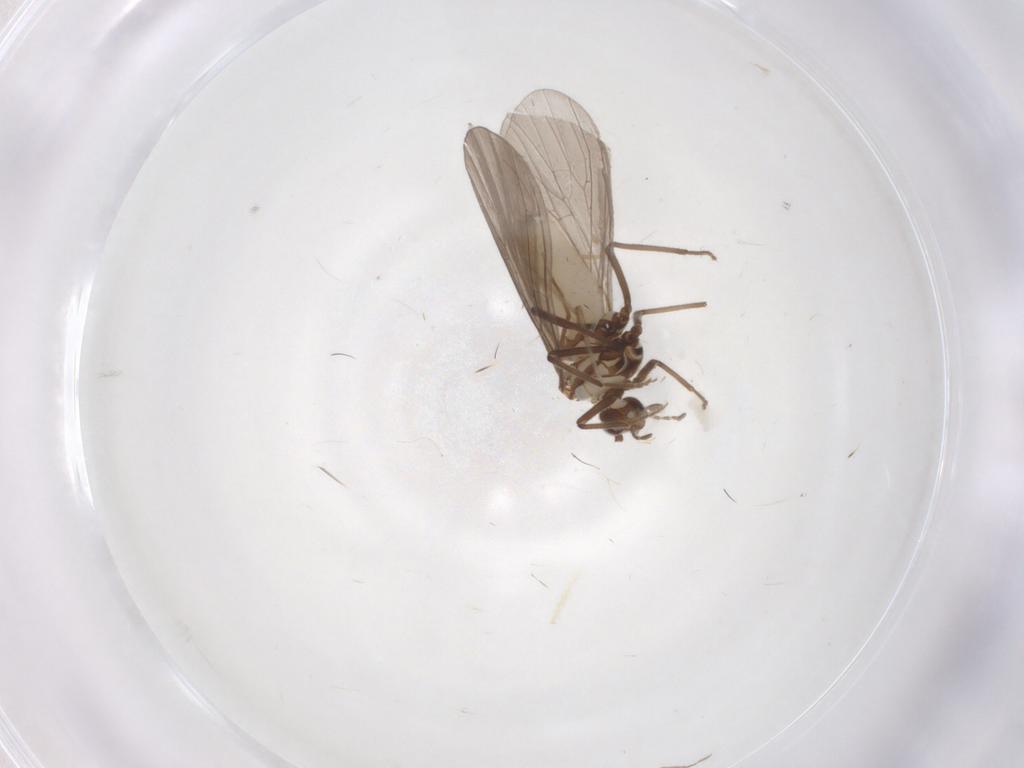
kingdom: Animalia
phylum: Arthropoda
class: Insecta
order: Neuroptera
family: Coniopterygidae
